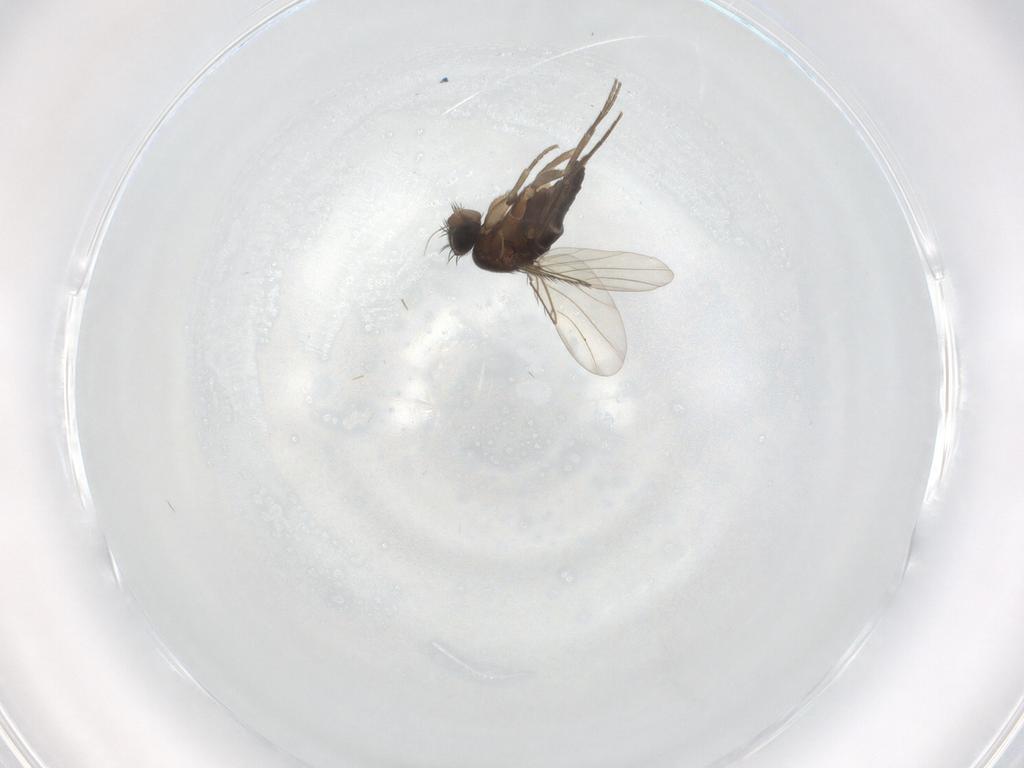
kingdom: Animalia
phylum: Arthropoda
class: Insecta
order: Diptera
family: Phoridae
